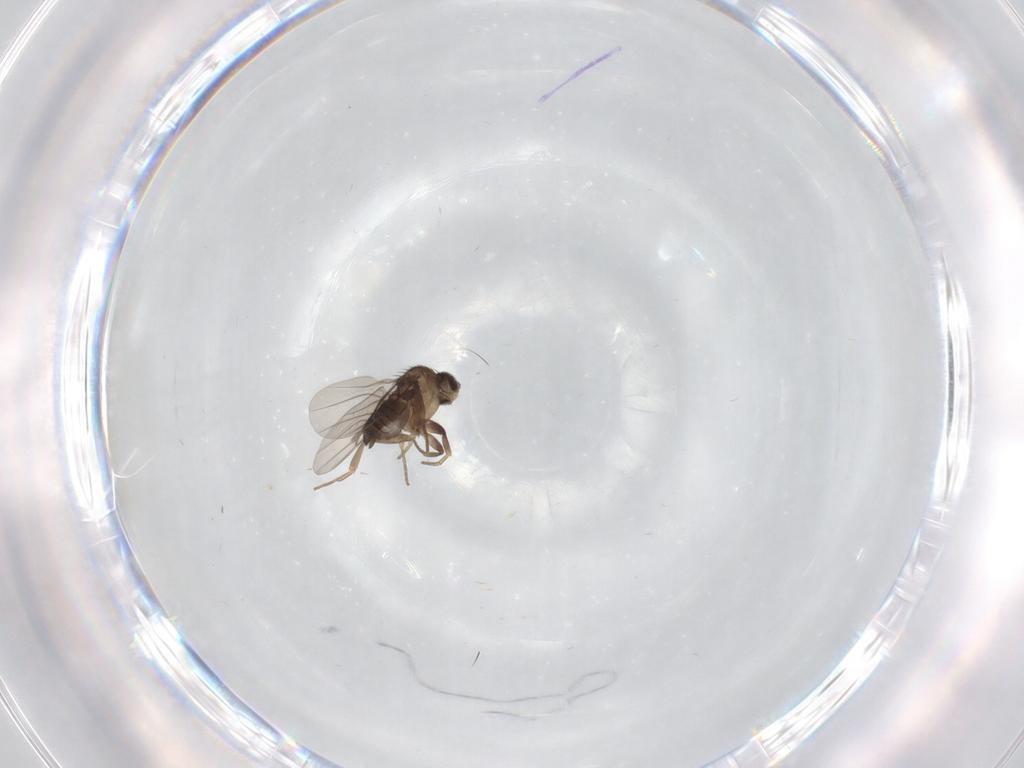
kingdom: Animalia
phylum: Arthropoda
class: Insecta
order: Diptera
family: Phoridae
